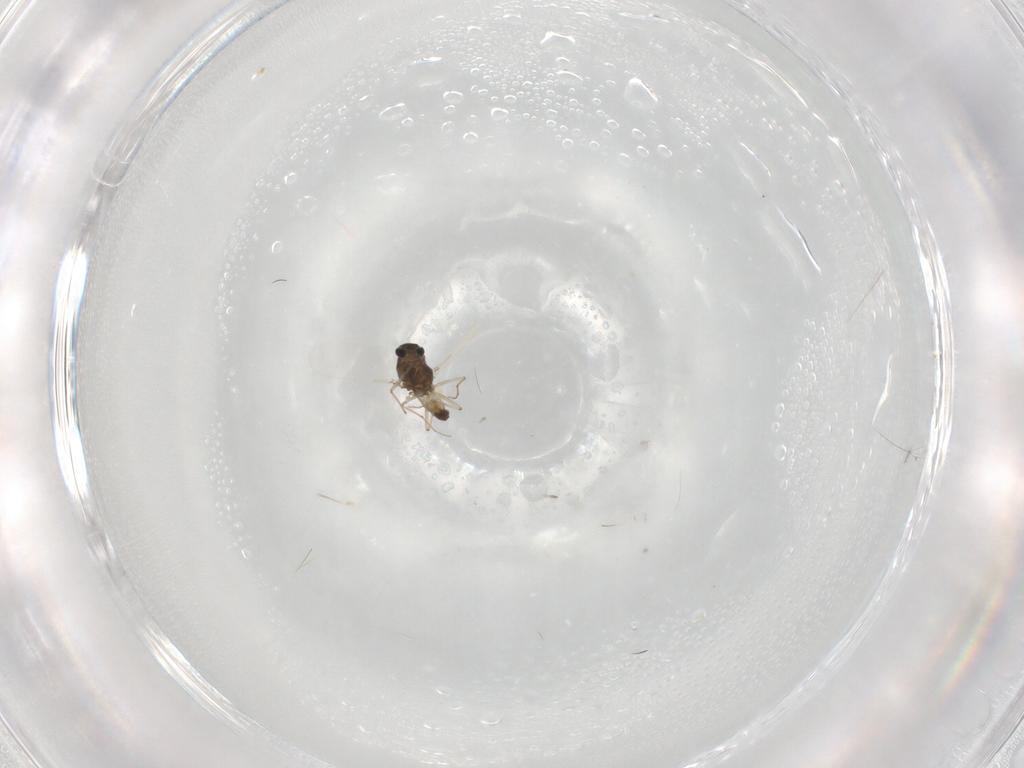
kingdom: Animalia
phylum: Arthropoda
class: Insecta
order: Diptera
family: Chironomidae
